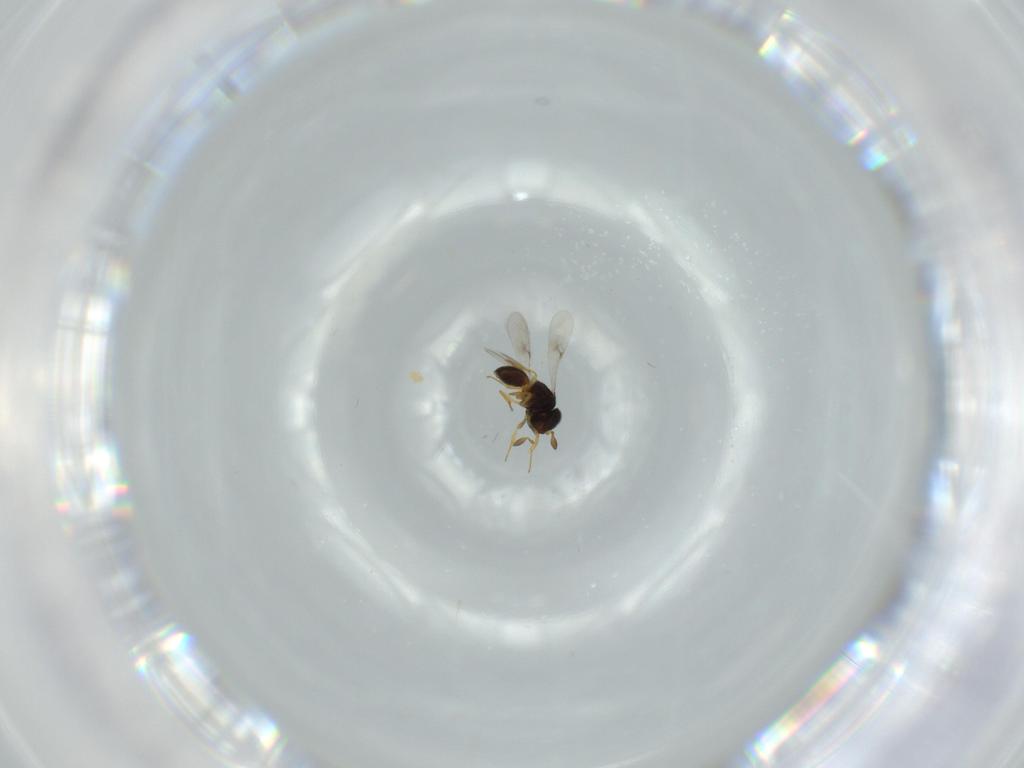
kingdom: Animalia
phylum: Arthropoda
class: Insecta
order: Hymenoptera
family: Scelionidae
